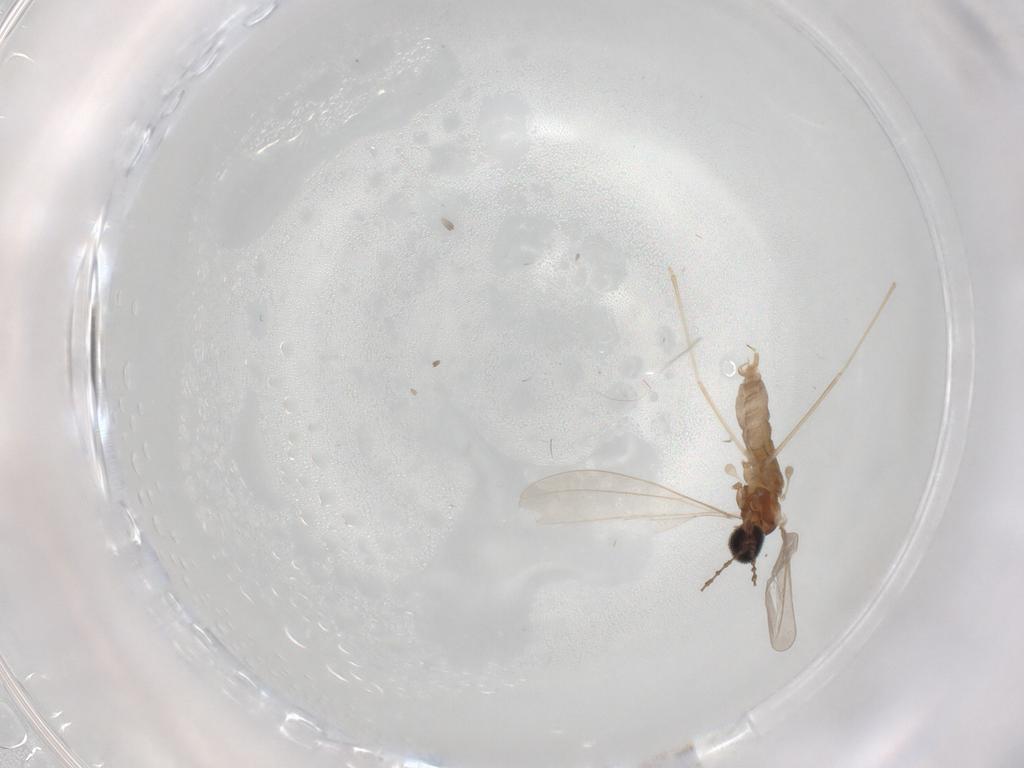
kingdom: Animalia
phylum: Arthropoda
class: Insecta
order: Diptera
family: Cecidomyiidae
